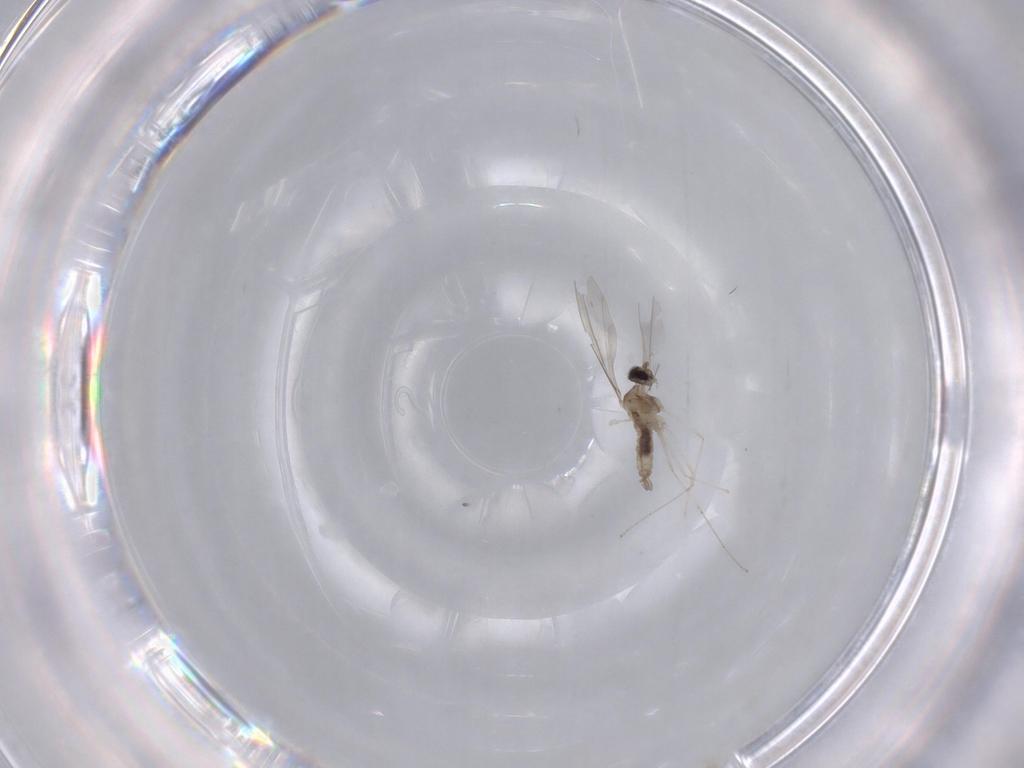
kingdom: Animalia
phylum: Arthropoda
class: Insecta
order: Diptera
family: Cecidomyiidae
